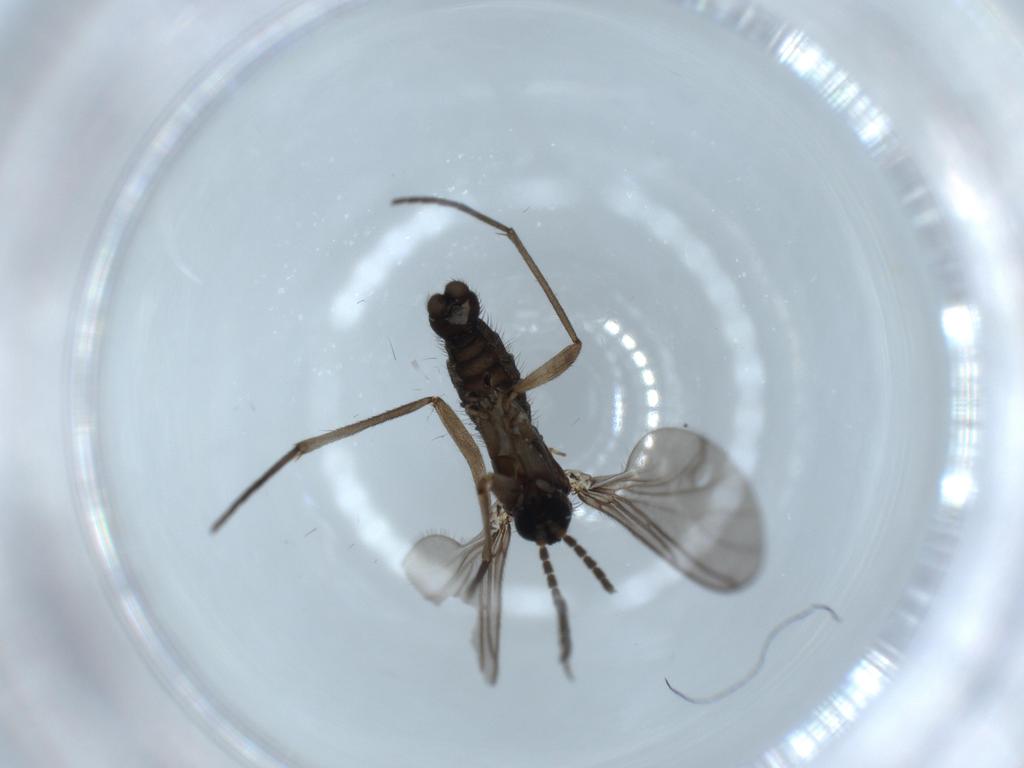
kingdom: Animalia
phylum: Arthropoda
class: Insecta
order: Diptera
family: Sciaridae
